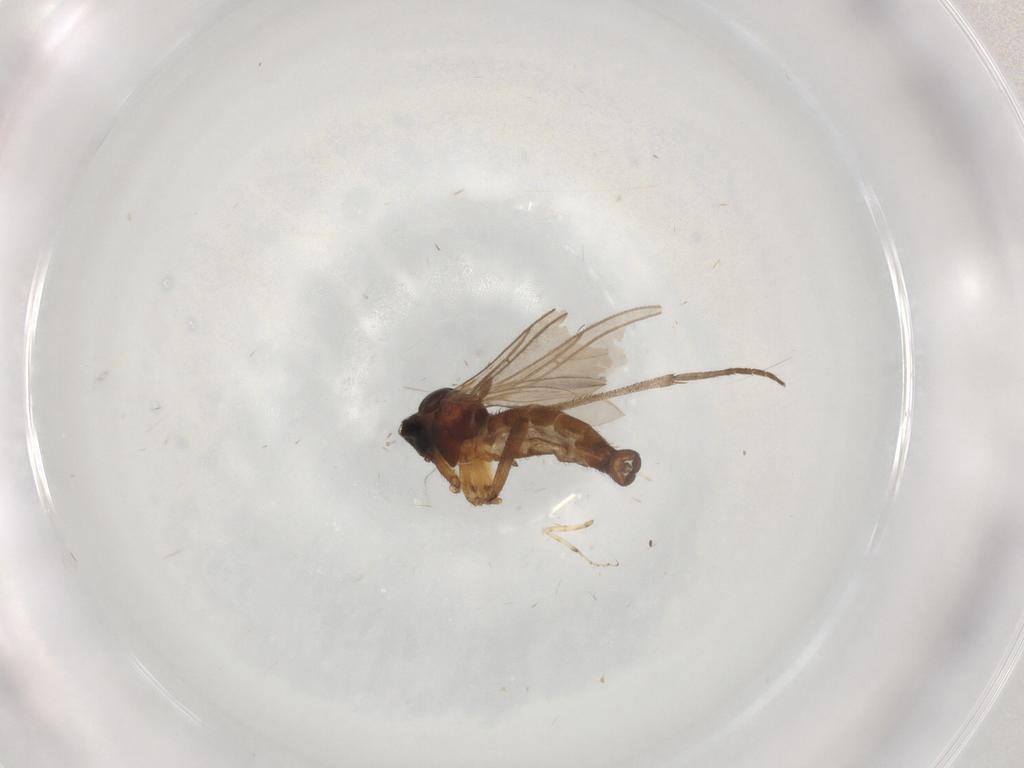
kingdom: Animalia
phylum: Arthropoda
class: Insecta
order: Diptera
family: Sciaridae
